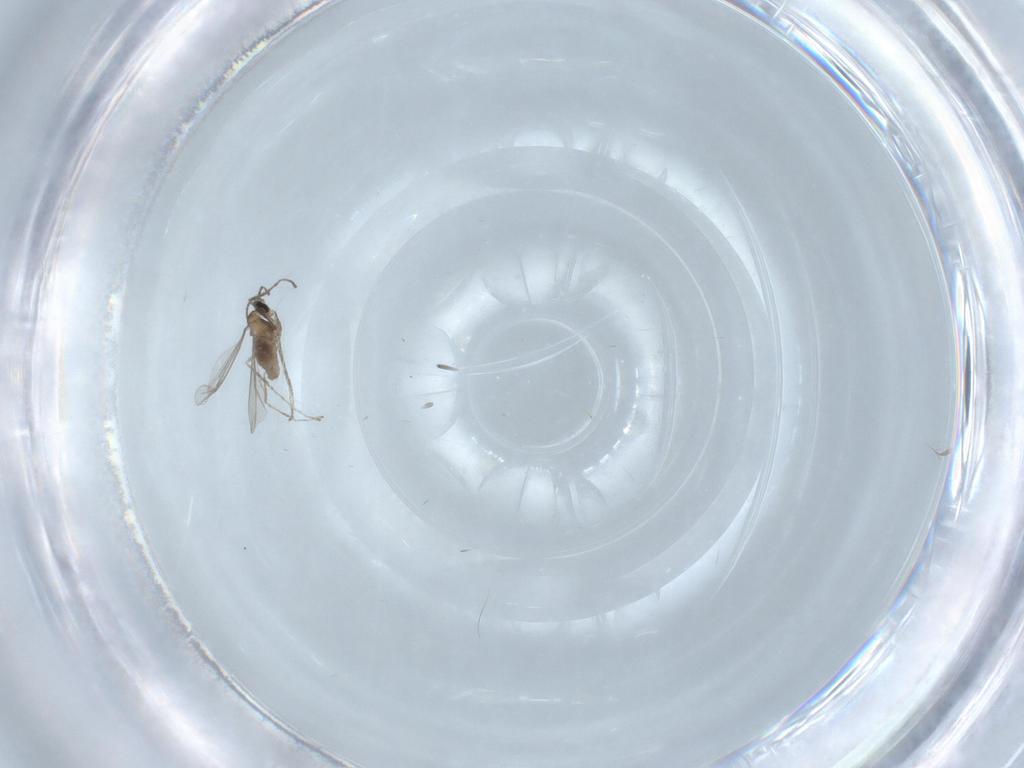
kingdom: Animalia
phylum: Arthropoda
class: Insecta
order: Diptera
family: Cecidomyiidae
